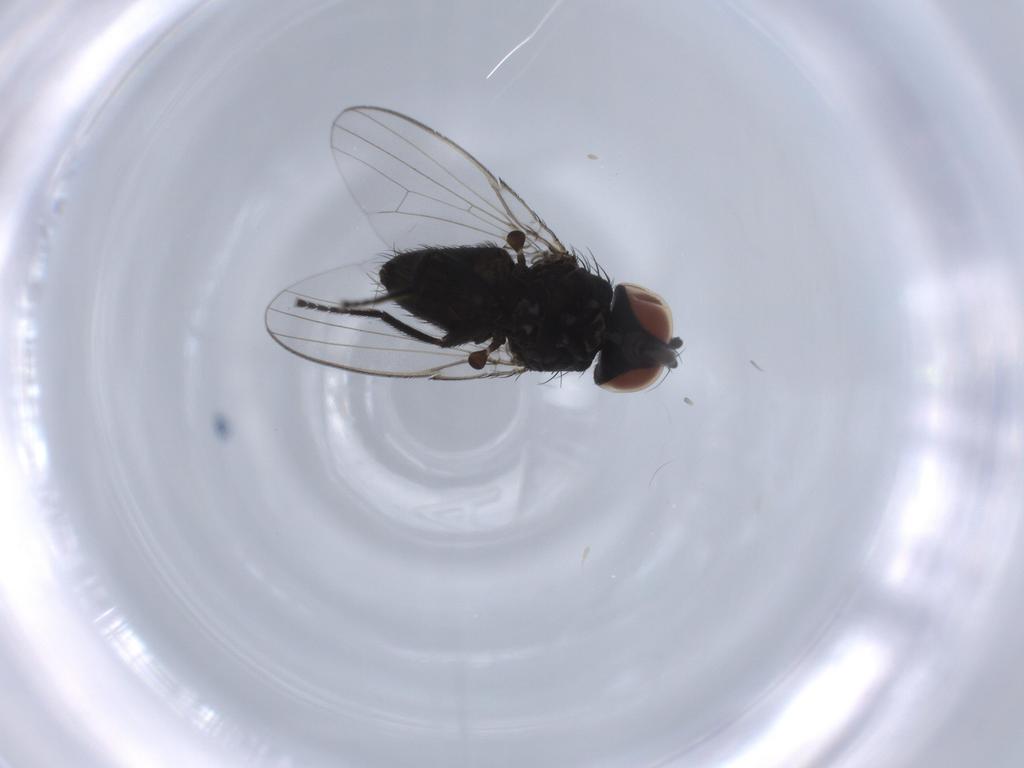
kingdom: Animalia
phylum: Arthropoda
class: Insecta
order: Diptera
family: Milichiidae
